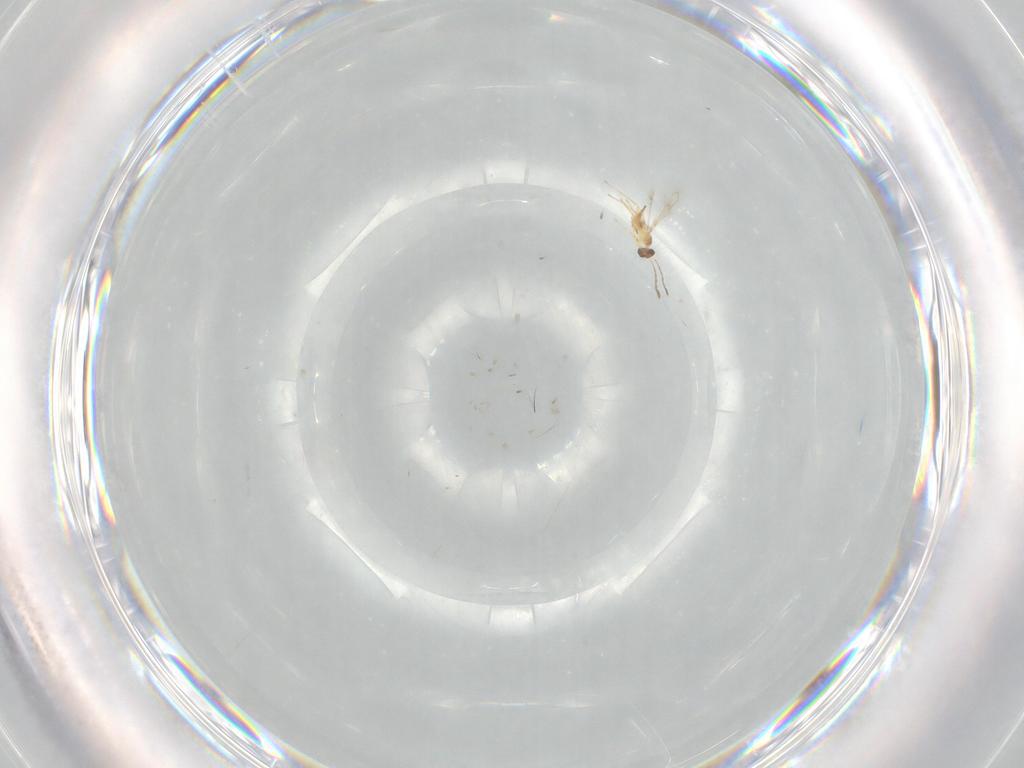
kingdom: Animalia
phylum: Arthropoda
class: Insecta
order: Hymenoptera
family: Mymaridae
